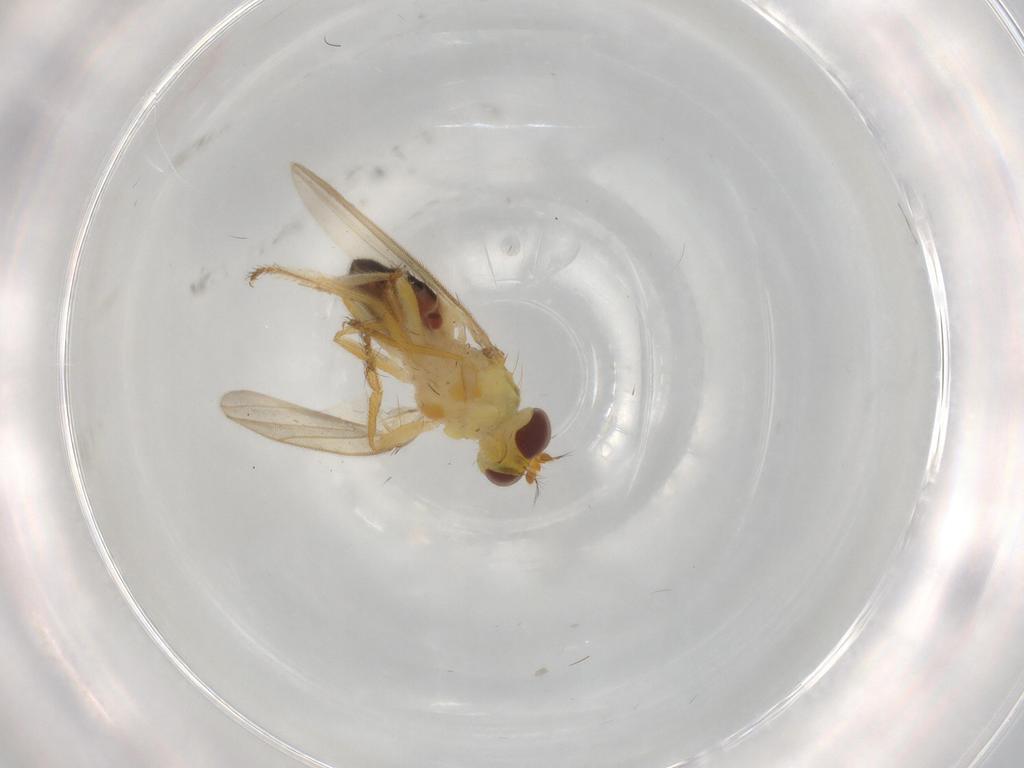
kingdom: Animalia
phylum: Arthropoda
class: Insecta
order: Diptera
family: Periscelididae
